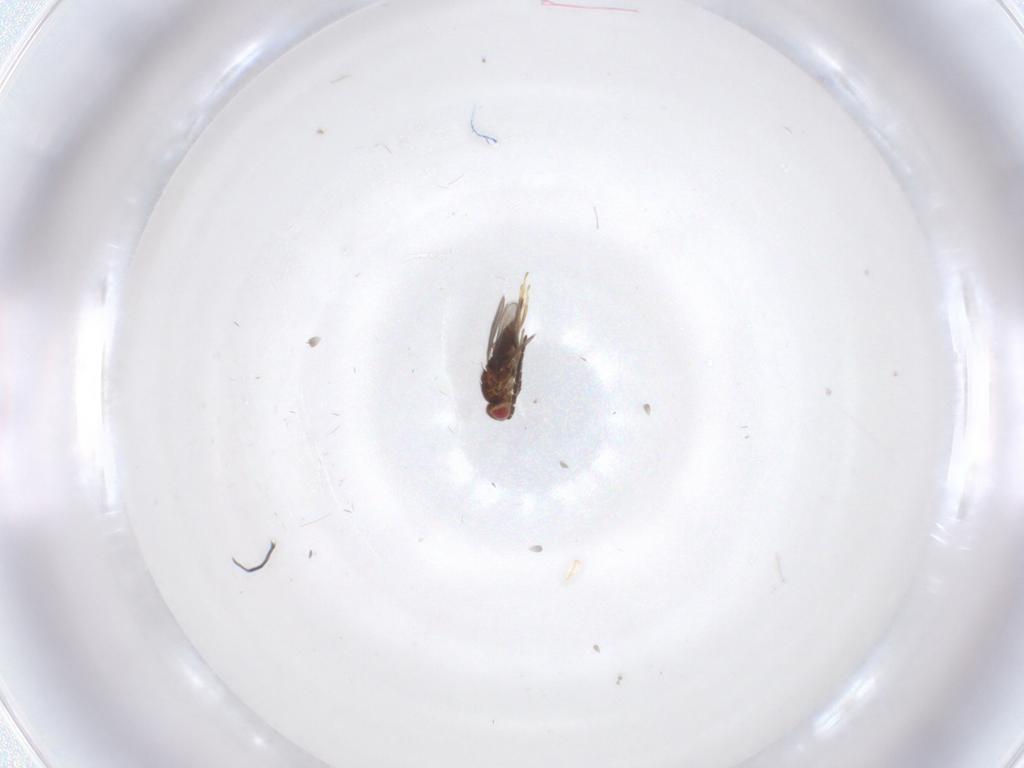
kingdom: Animalia
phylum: Arthropoda
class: Insecta
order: Hymenoptera
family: Aphelinidae
